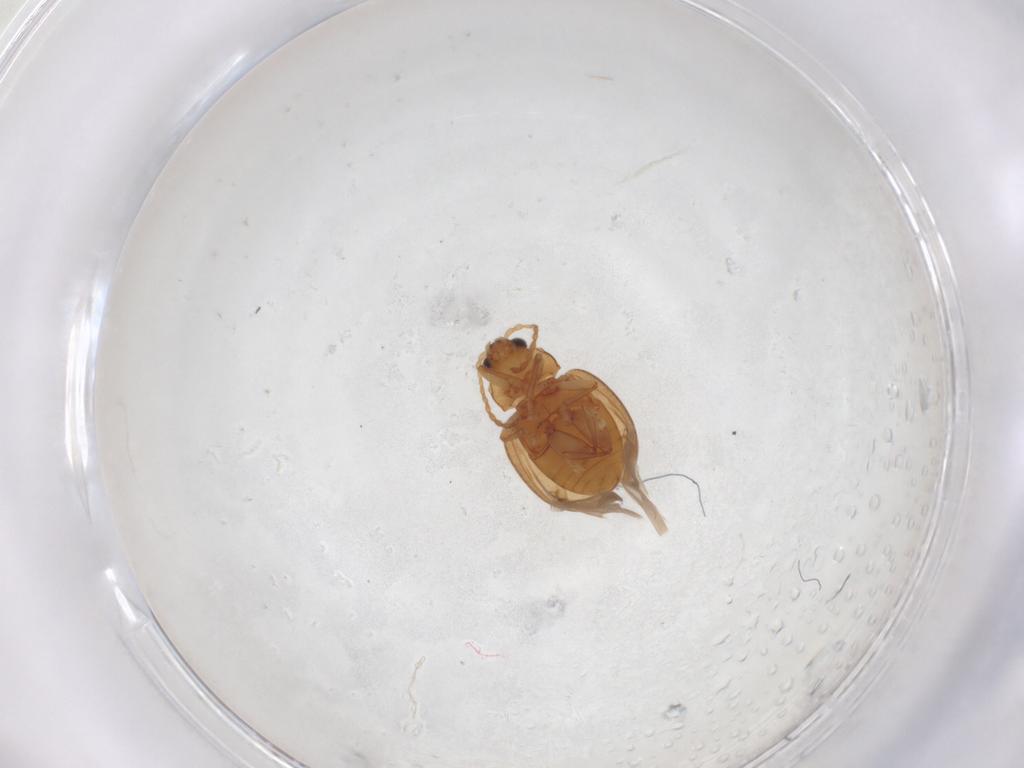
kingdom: Animalia
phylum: Arthropoda
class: Insecta
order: Coleoptera
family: Chrysomelidae
